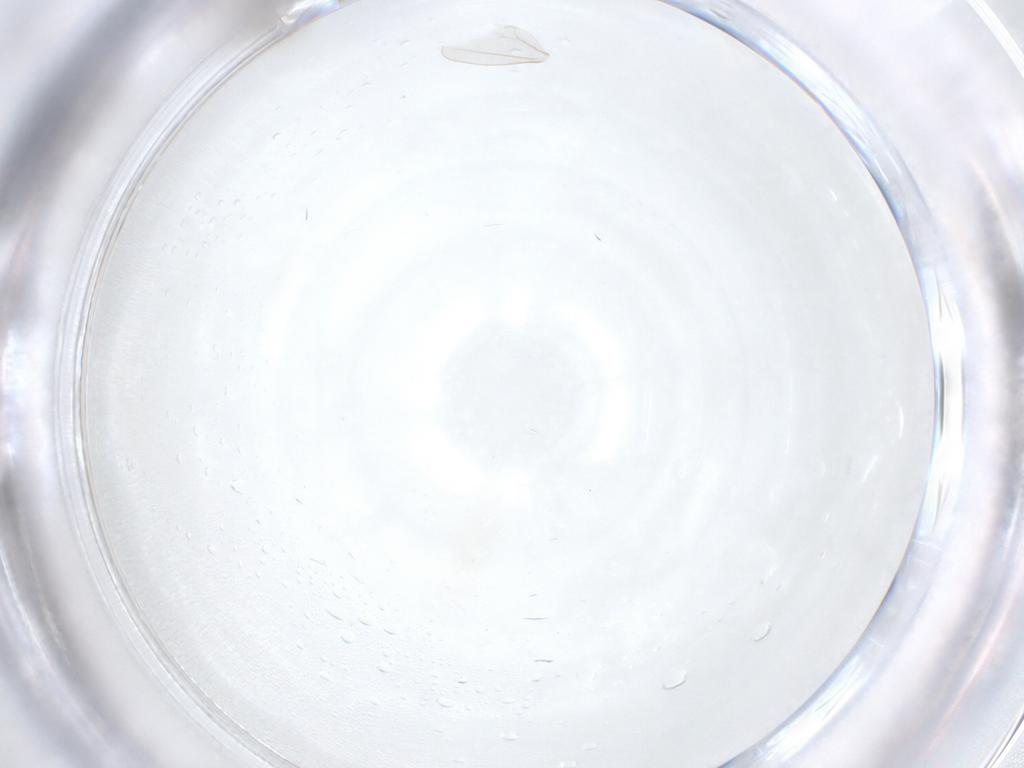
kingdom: Animalia
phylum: Arthropoda
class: Insecta
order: Diptera
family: Cecidomyiidae
